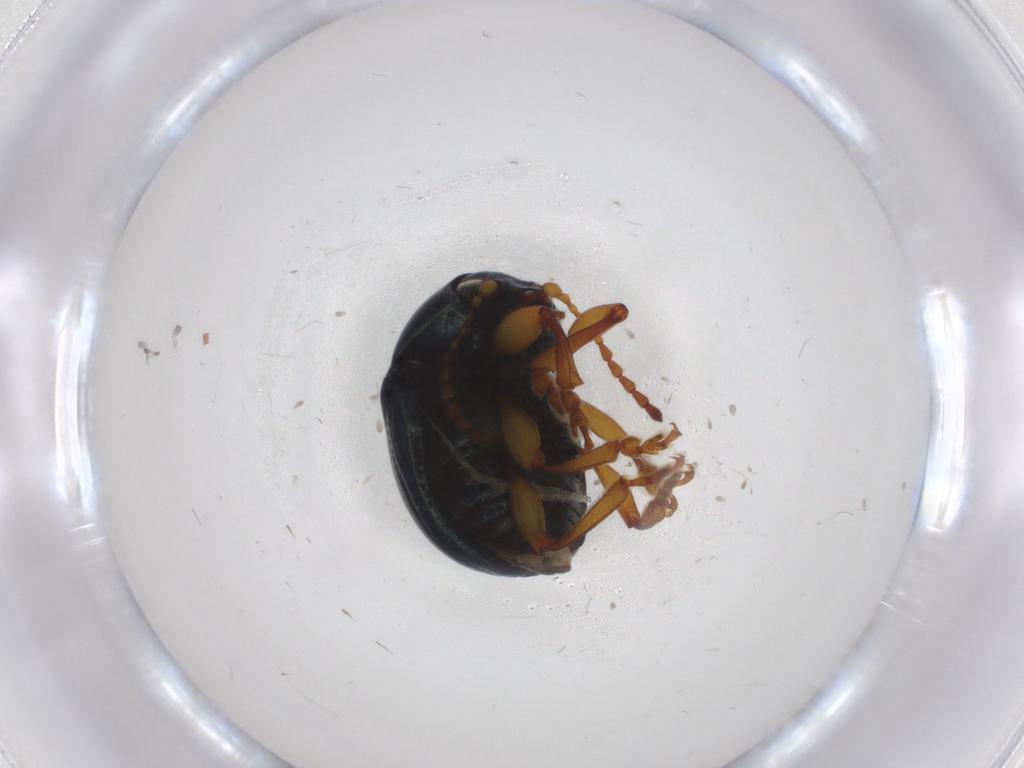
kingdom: Animalia
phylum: Arthropoda
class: Insecta
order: Coleoptera
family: Chrysomelidae
